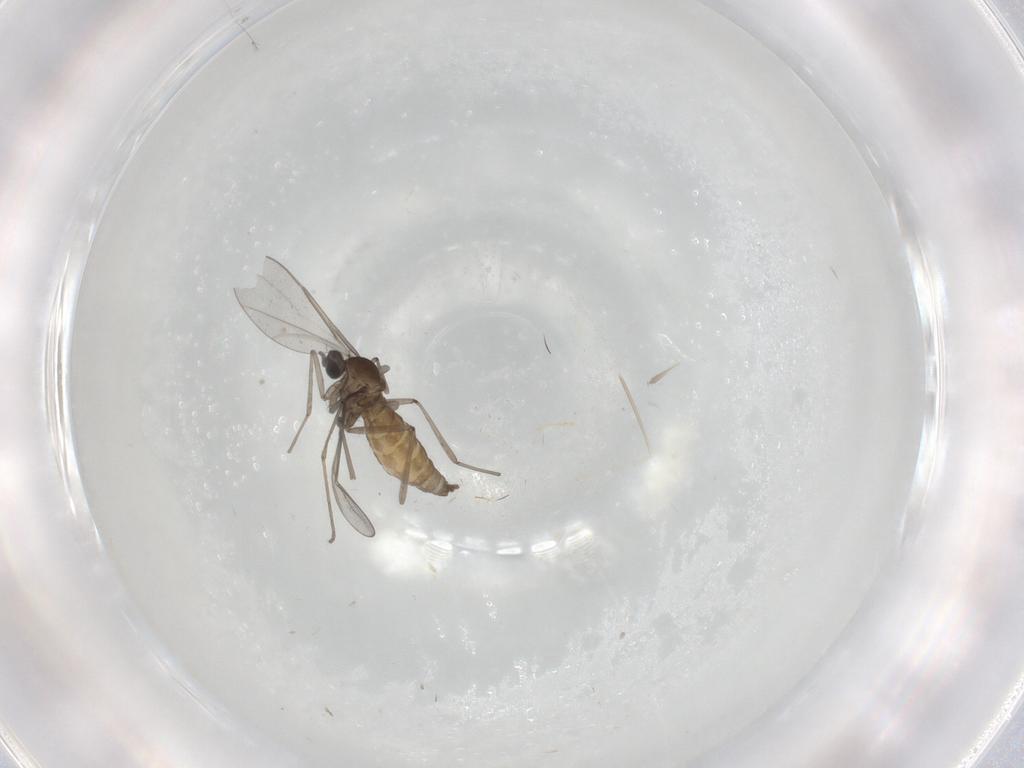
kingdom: Animalia
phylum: Arthropoda
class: Insecta
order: Diptera
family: Cecidomyiidae
